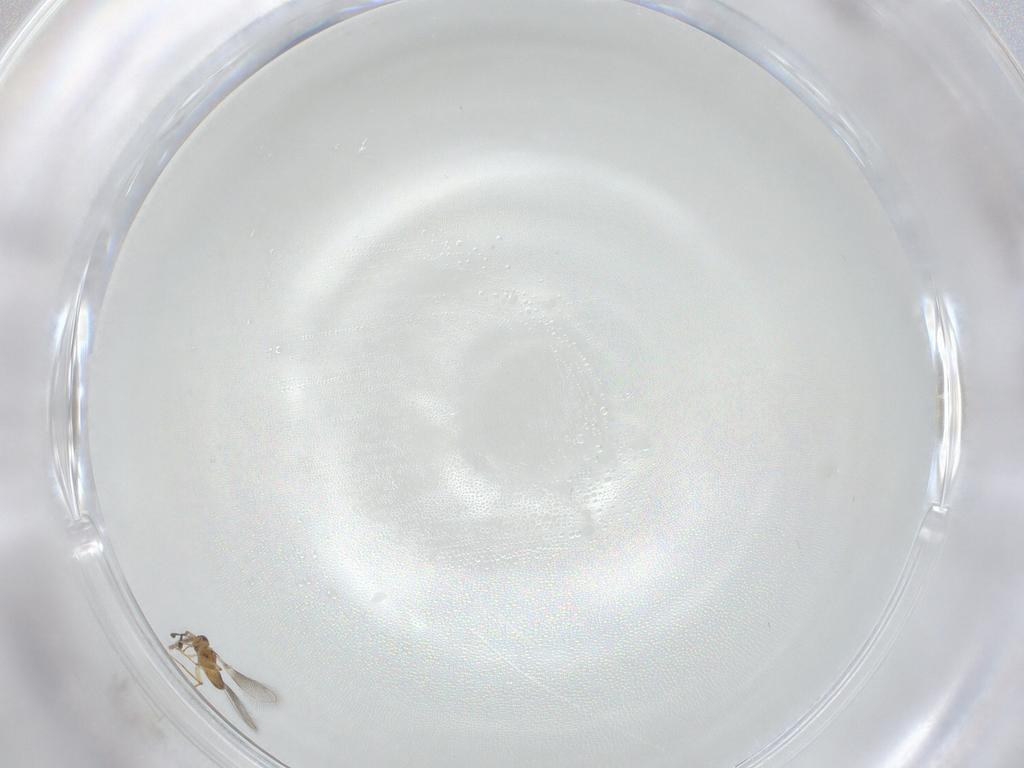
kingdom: Animalia
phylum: Arthropoda
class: Insecta
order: Hymenoptera
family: Mymaridae
